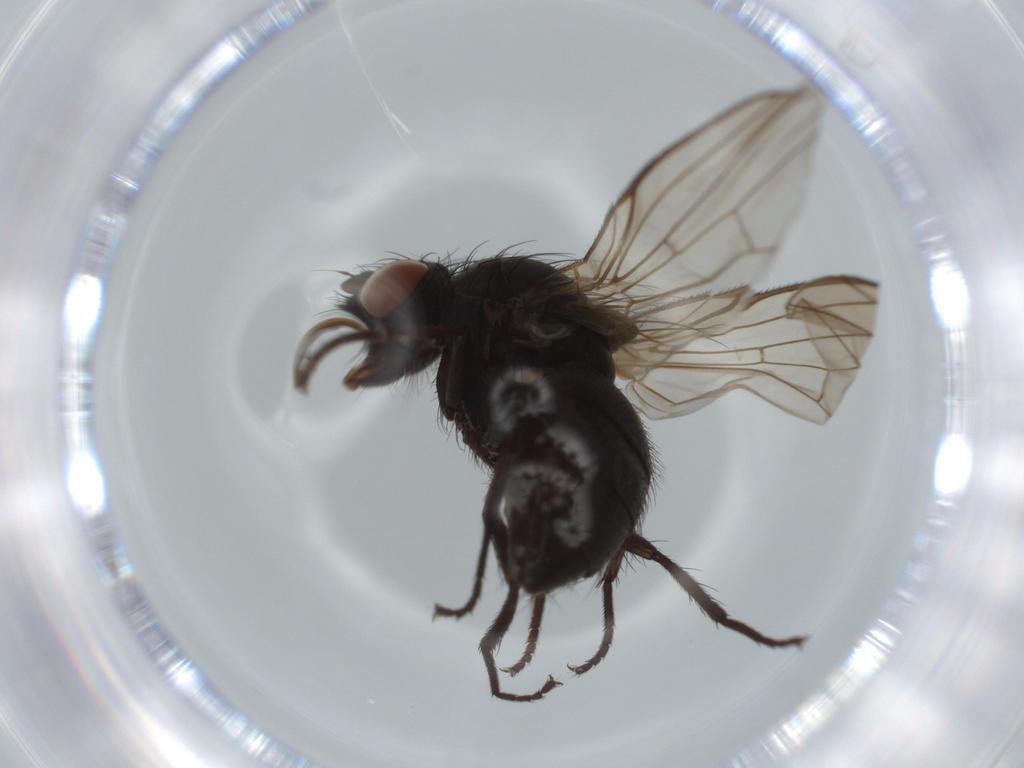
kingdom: Animalia
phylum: Arthropoda
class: Insecta
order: Diptera
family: Anthomyiidae
